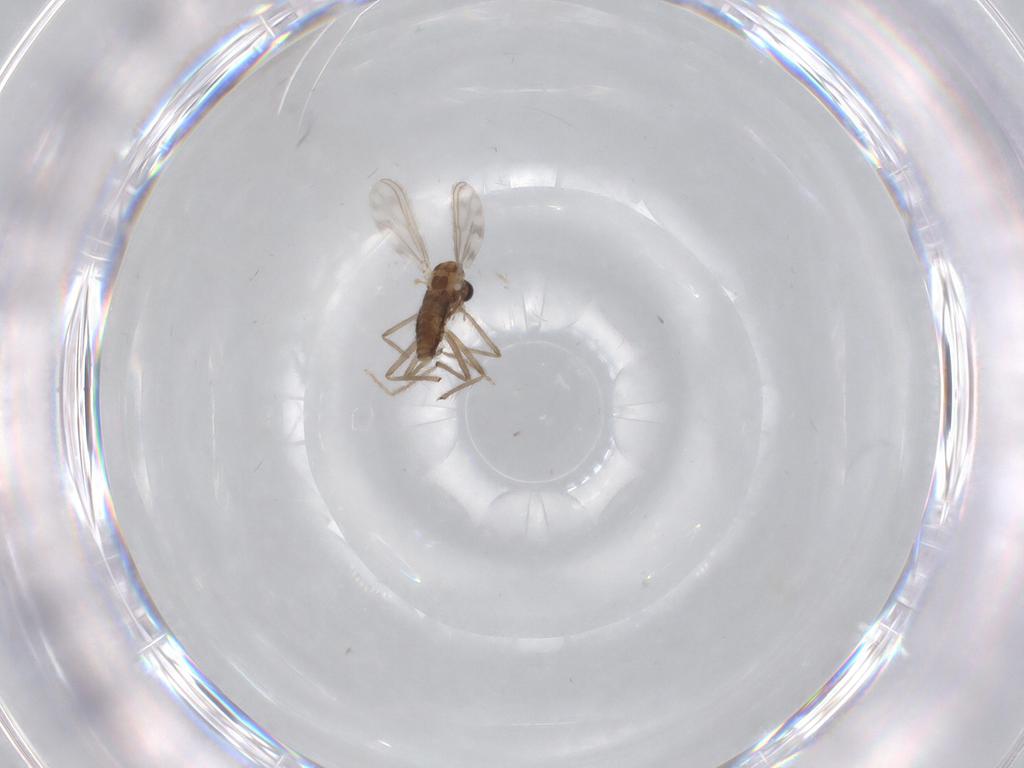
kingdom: Animalia
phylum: Arthropoda
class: Insecta
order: Diptera
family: Chironomidae
